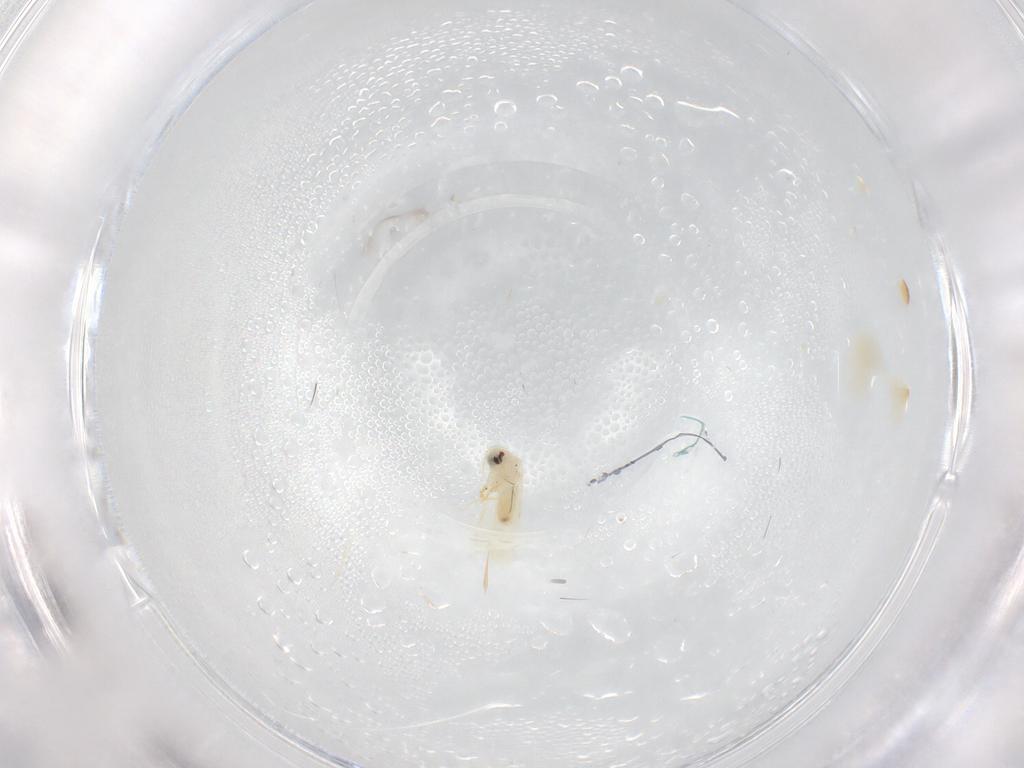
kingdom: Animalia
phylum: Arthropoda
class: Insecta
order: Hemiptera
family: Aleyrodidae
